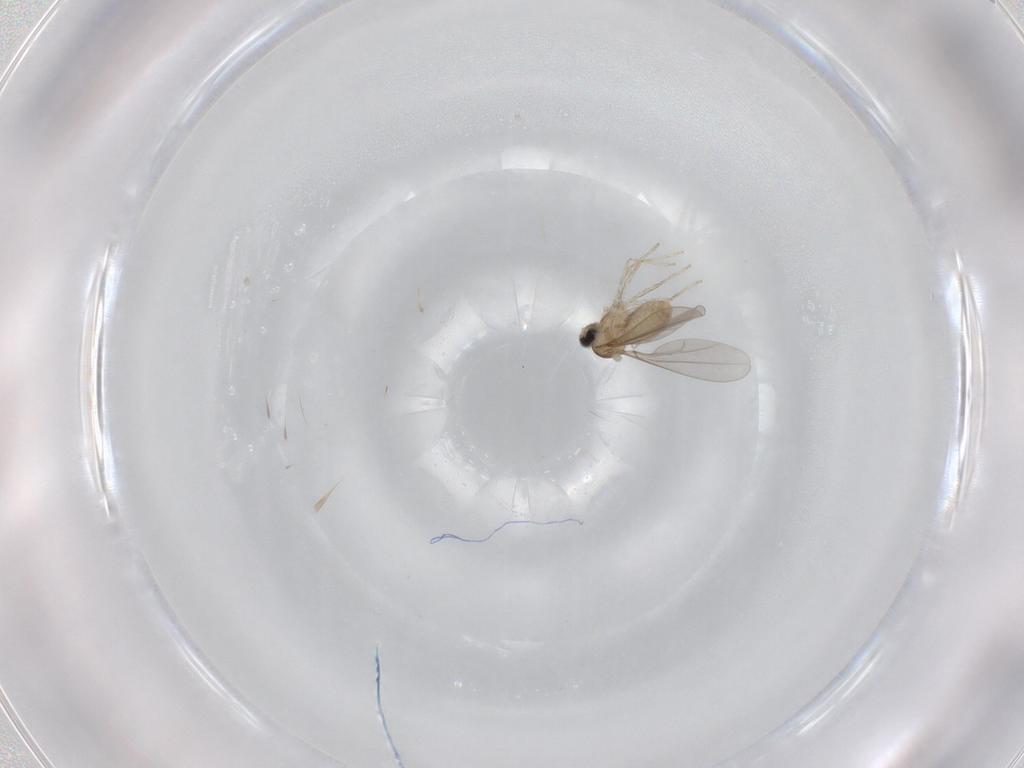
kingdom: Animalia
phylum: Arthropoda
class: Insecta
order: Diptera
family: Cecidomyiidae
